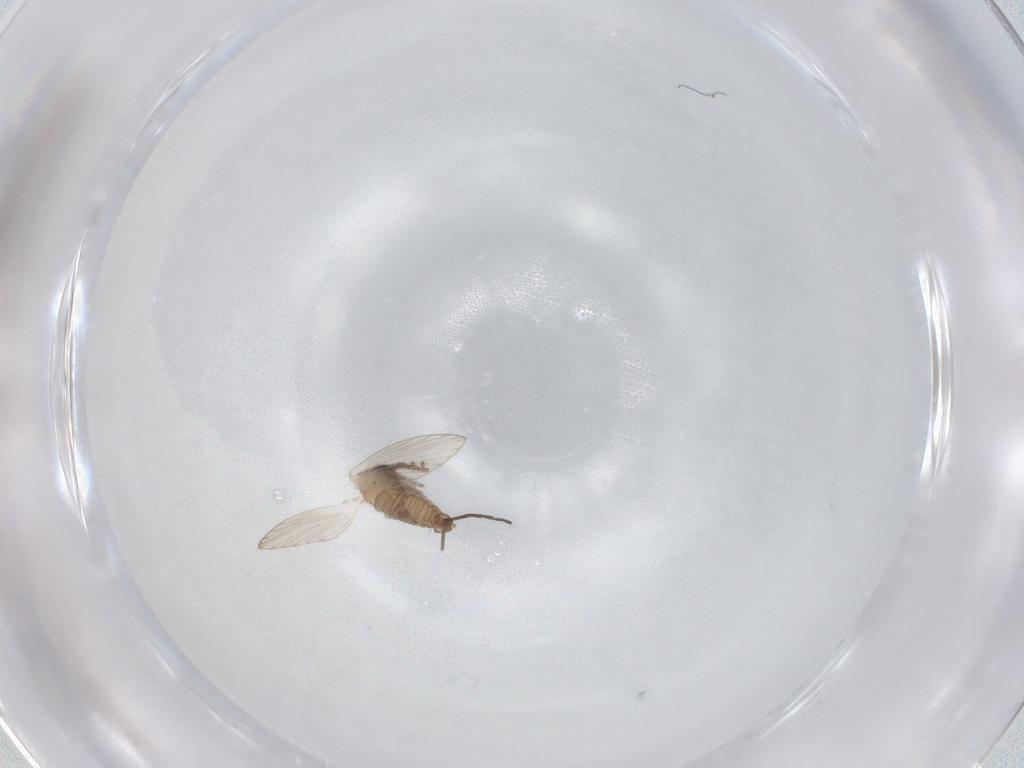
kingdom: Animalia
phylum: Arthropoda
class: Insecta
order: Diptera
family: Psychodidae
